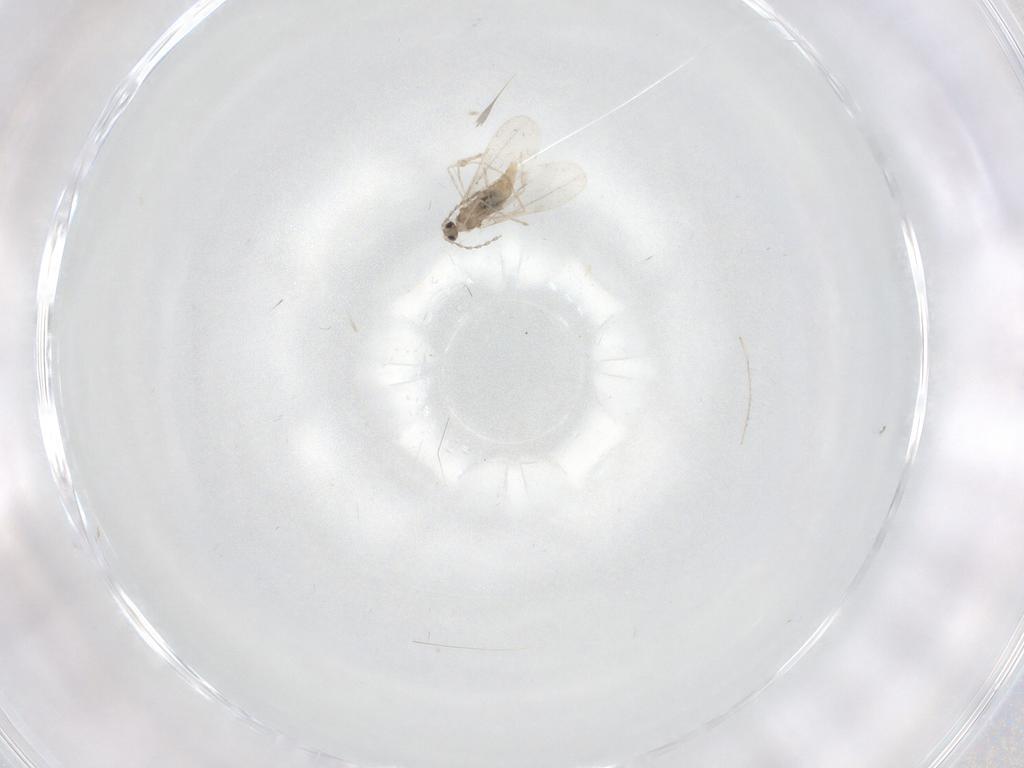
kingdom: Animalia
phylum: Arthropoda
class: Insecta
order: Diptera
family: Cecidomyiidae
